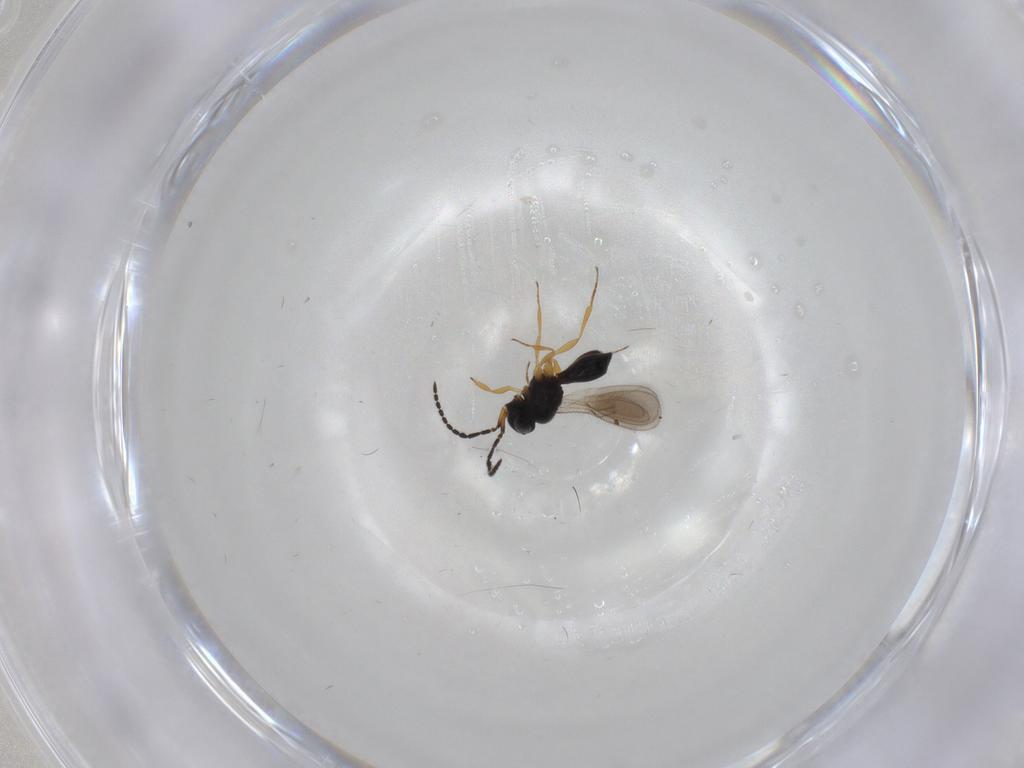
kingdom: Animalia
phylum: Arthropoda
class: Insecta
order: Hymenoptera
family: Scelionidae
